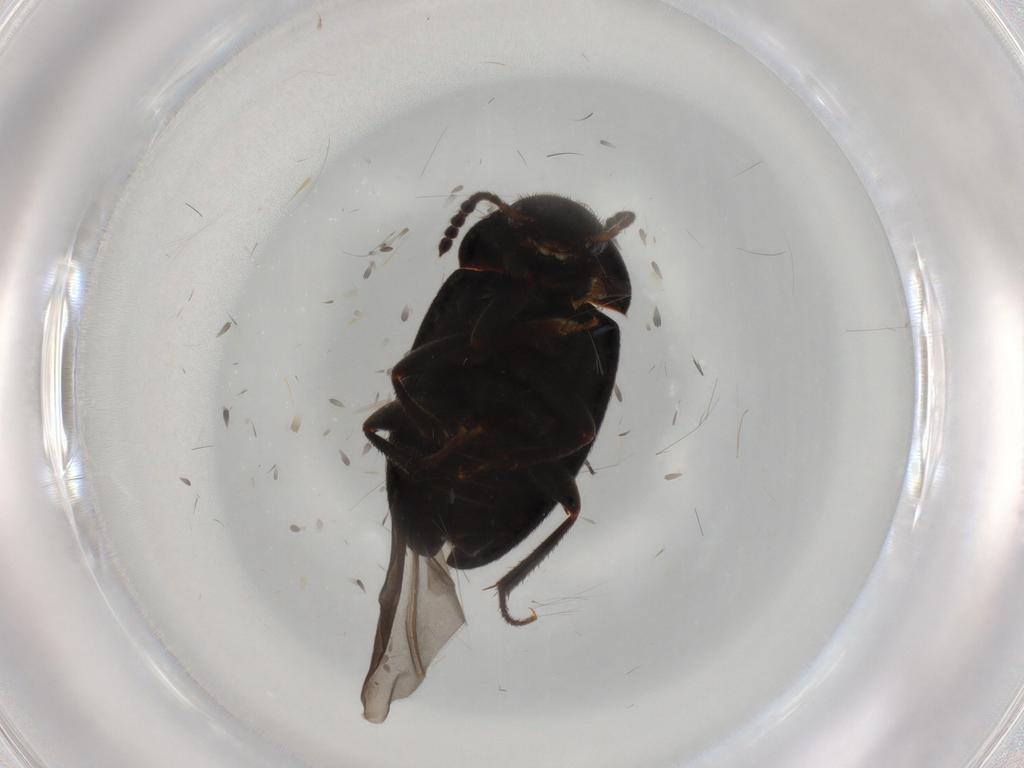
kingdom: Animalia
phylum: Arthropoda
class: Insecta
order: Coleoptera
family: Leiodidae
